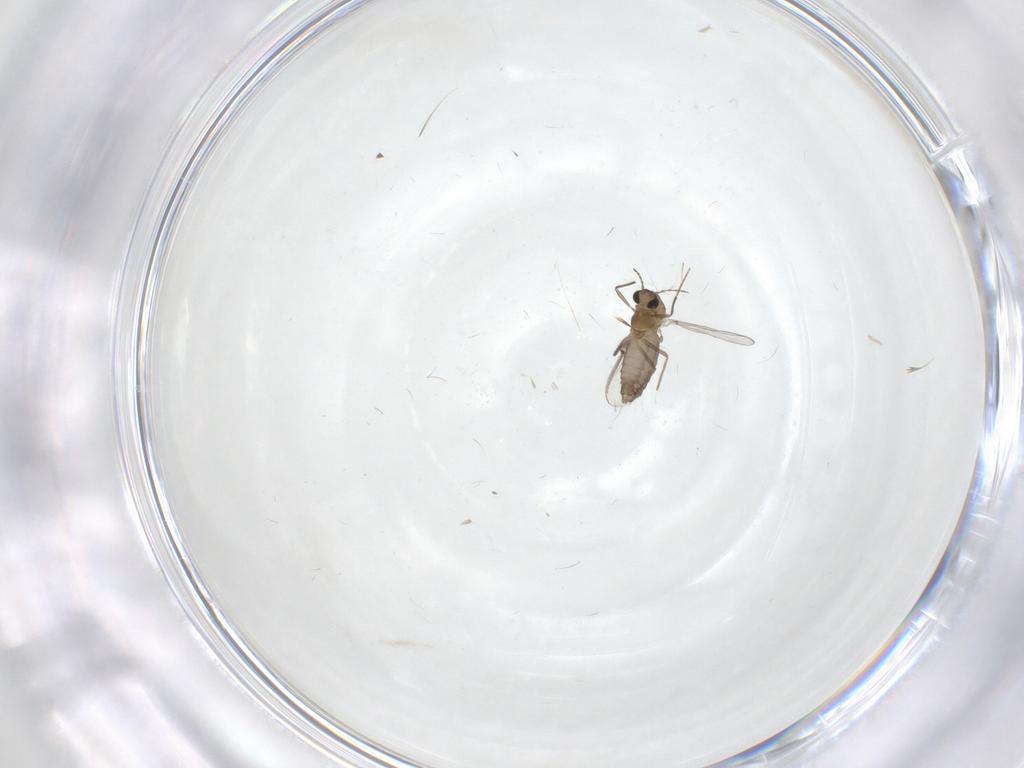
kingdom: Animalia
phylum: Arthropoda
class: Insecta
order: Diptera
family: Chironomidae
